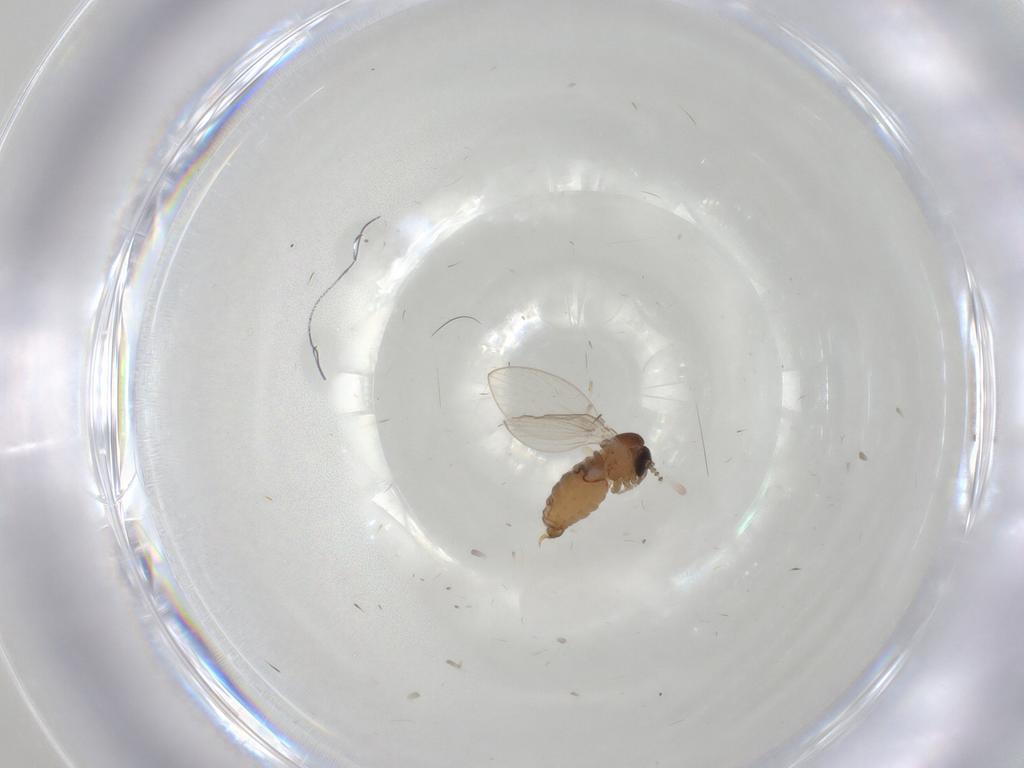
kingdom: Animalia
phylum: Arthropoda
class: Insecta
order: Diptera
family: Psychodidae
